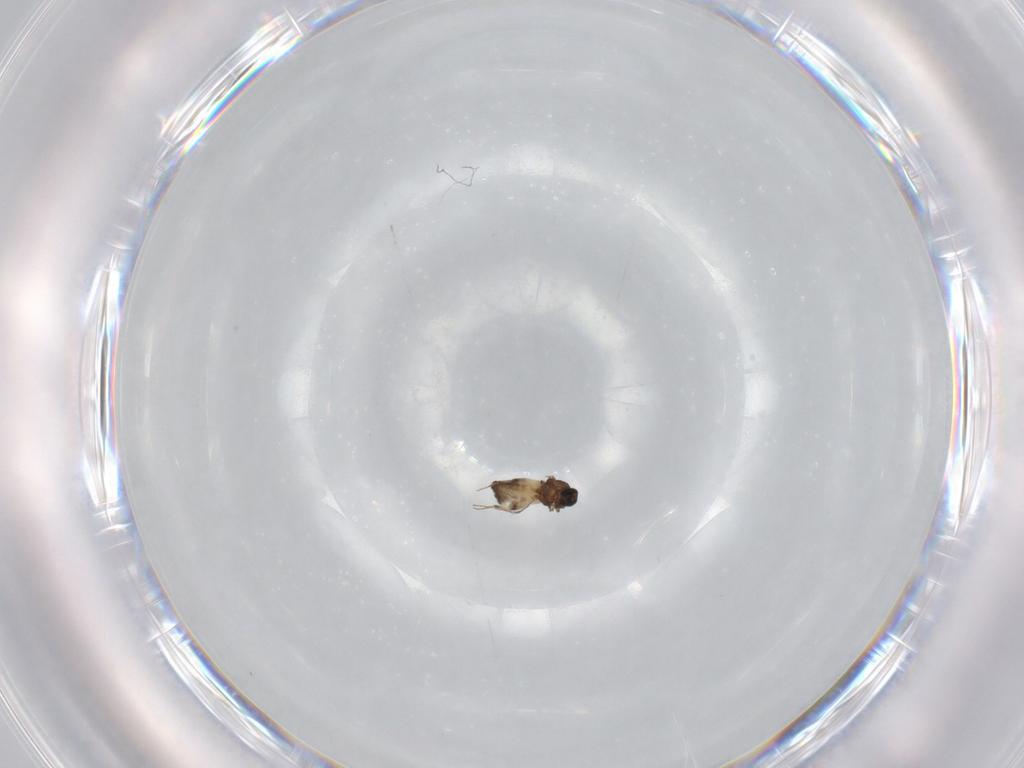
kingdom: Animalia
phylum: Arthropoda
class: Insecta
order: Diptera
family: Ceratopogonidae
